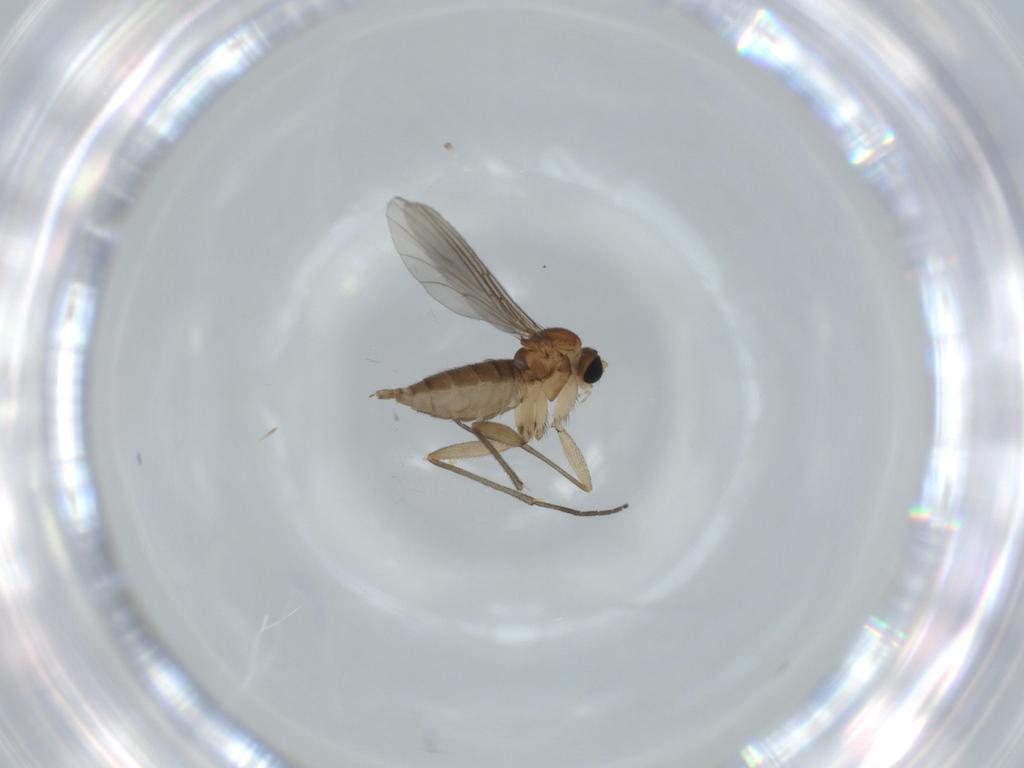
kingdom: Animalia
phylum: Arthropoda
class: Insecta
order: Diptera
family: Sciaridae
